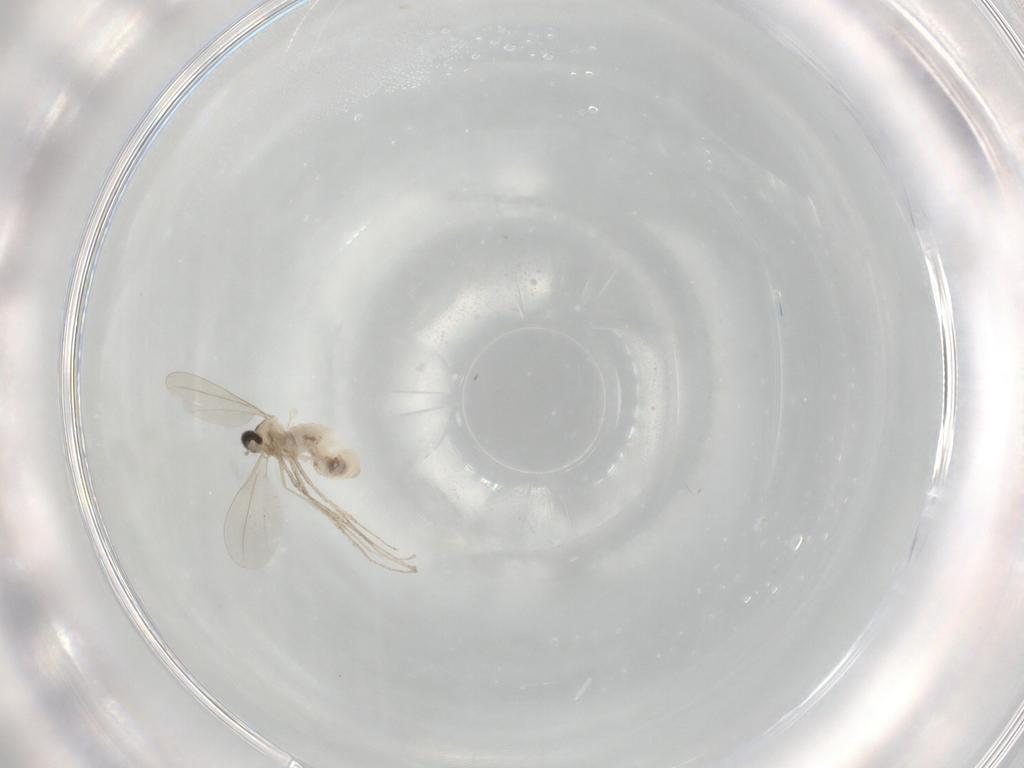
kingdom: Animalia
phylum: Arthropoda
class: Insecta
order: Diptera
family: Cecidomyiidae
